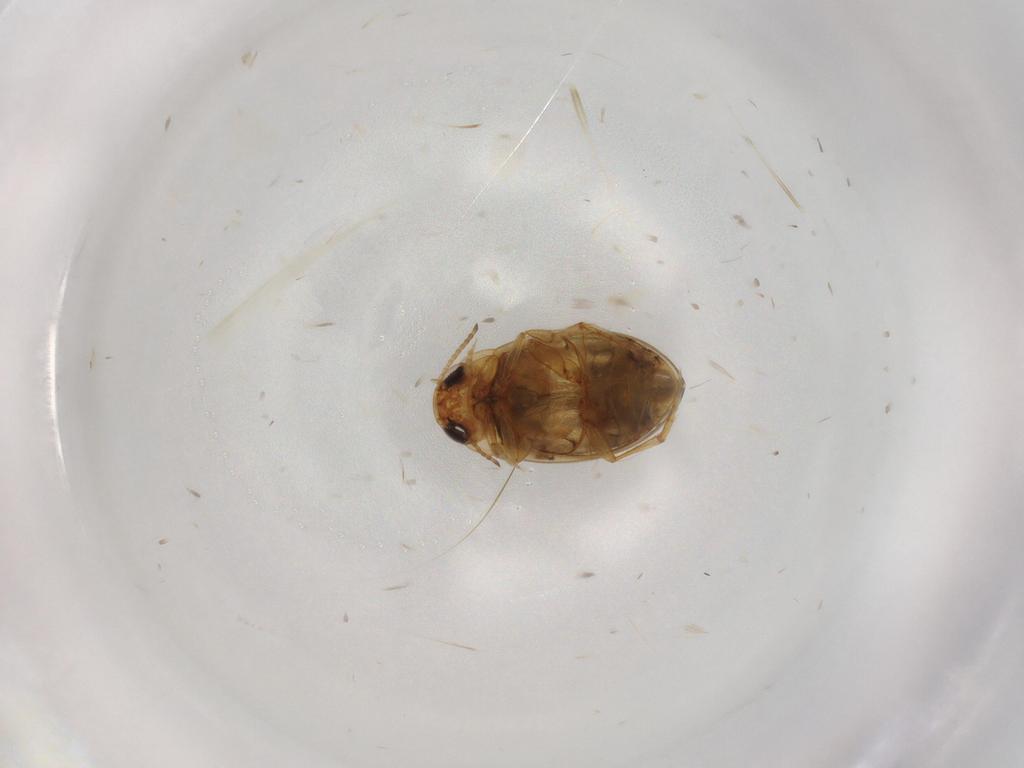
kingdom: Animalia
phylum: Arthropoda
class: Insecta
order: Coleoptera
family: Dytiscidae
